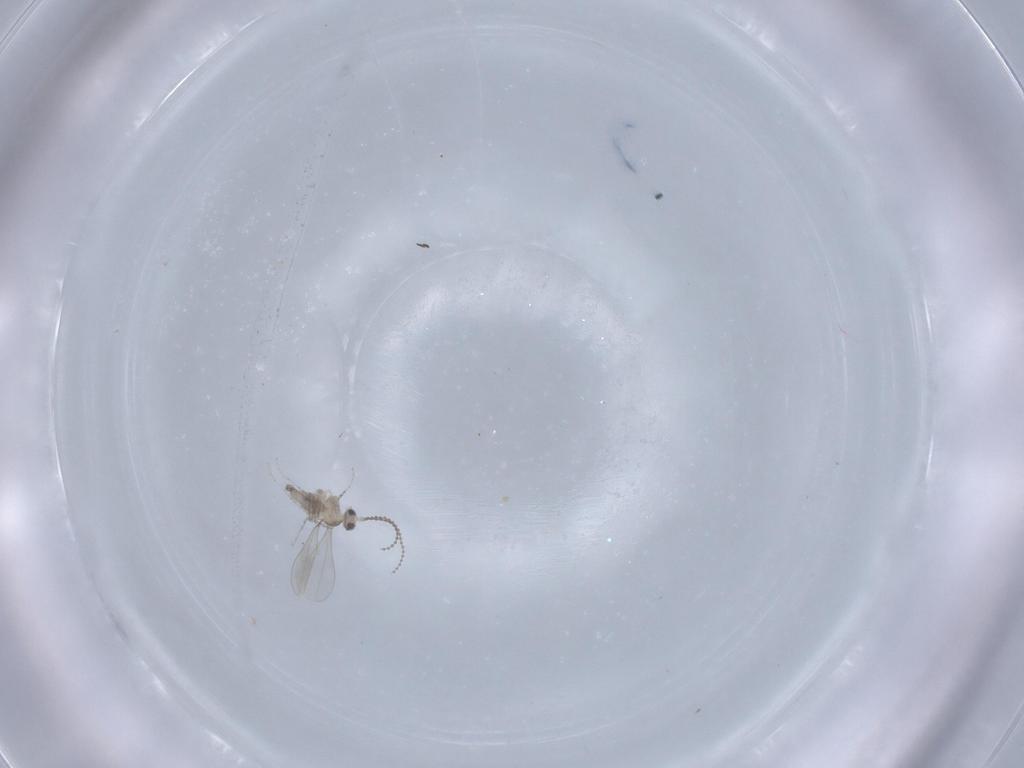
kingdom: Animalia
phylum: Arthropoda
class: Insecta
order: Diptera
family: Cecidomyiidae
